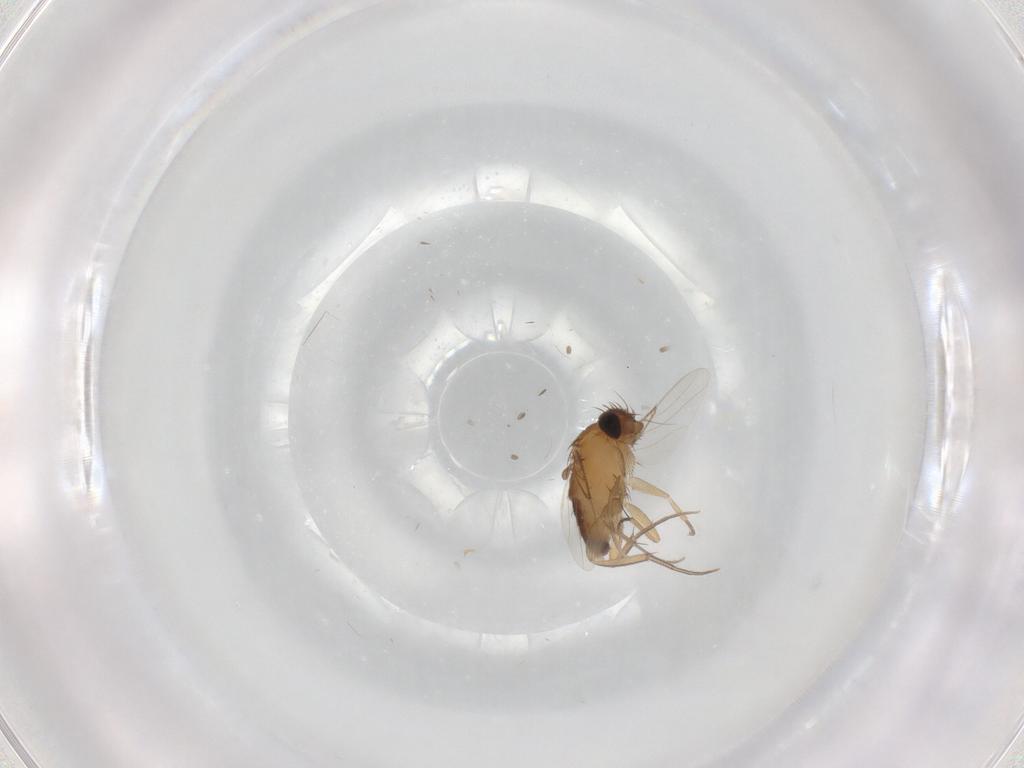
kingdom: Animalia
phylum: Arthropoda
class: Insecta
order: Diptera
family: Phoridae
